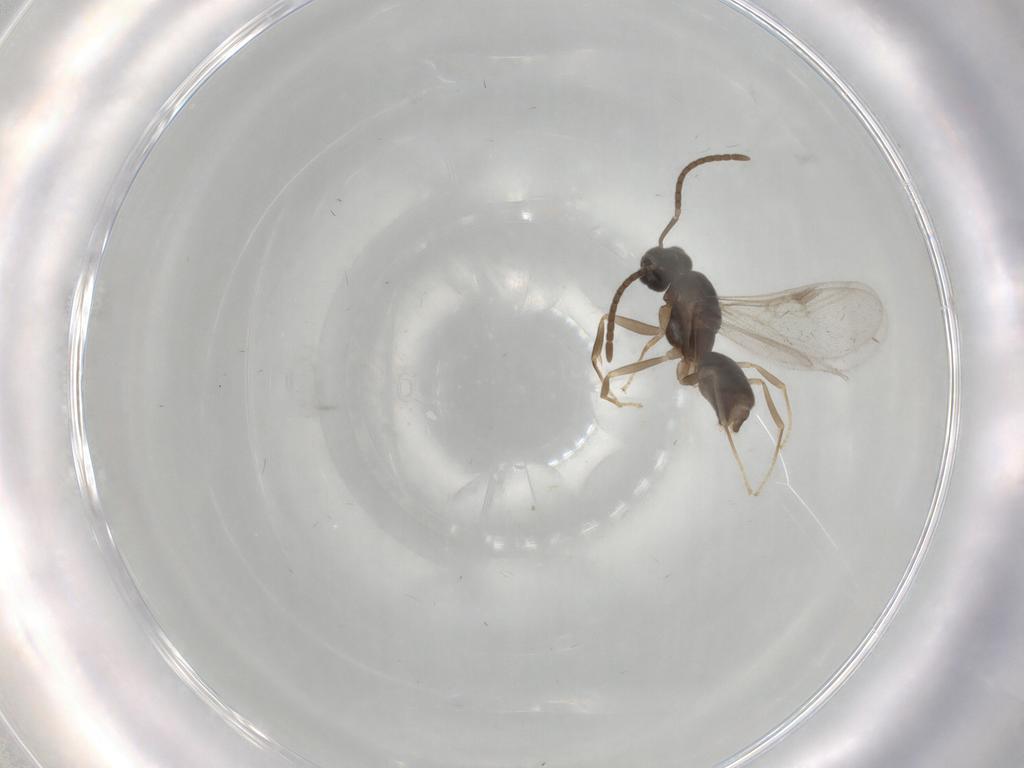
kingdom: Animalia
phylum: Arthropoda
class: Insecta
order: Hymenoptera
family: Formicidae
